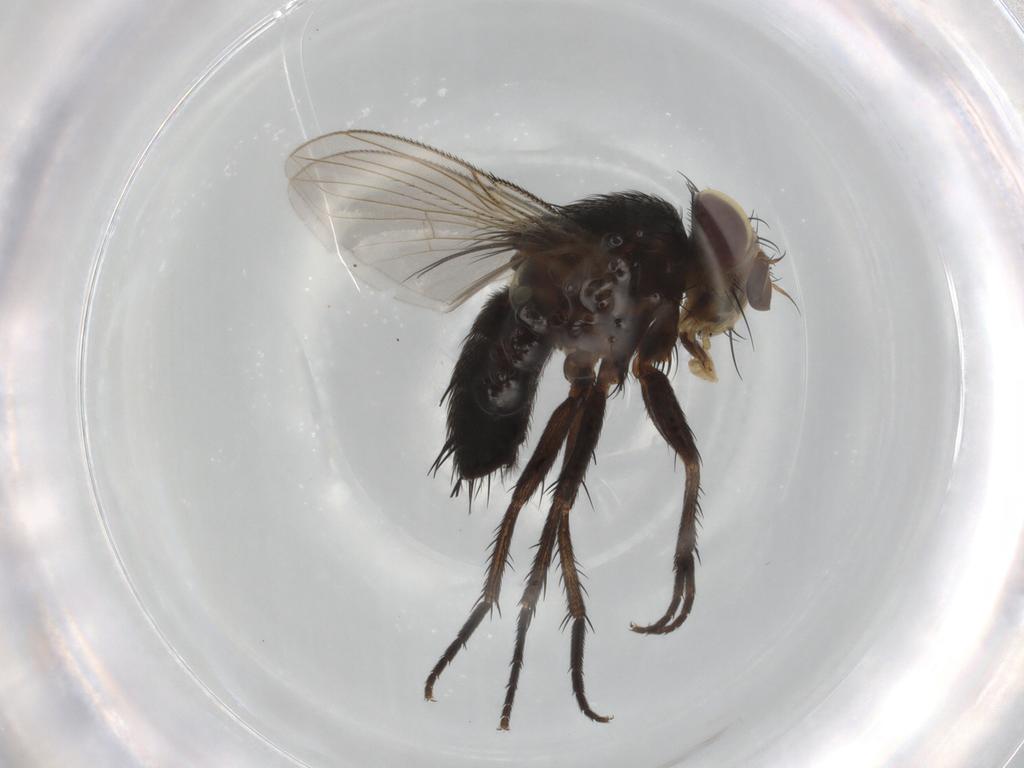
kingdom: Animalia
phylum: Arthropoda
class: Insecta
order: Diptera
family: Tachinidae
